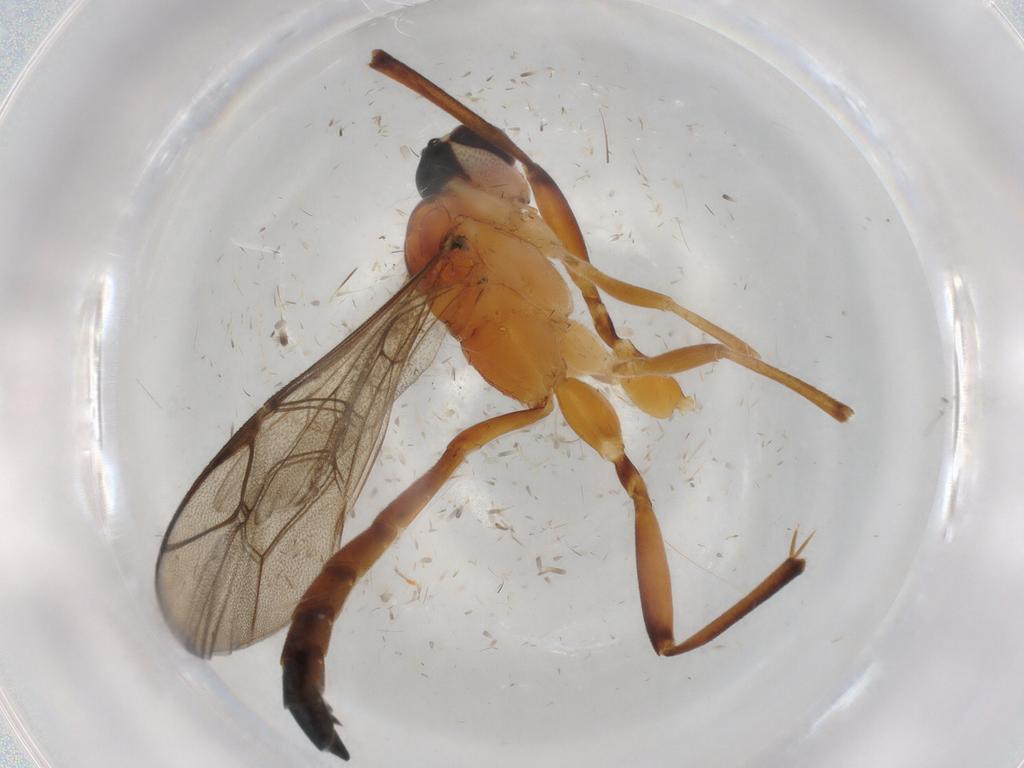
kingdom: Animalia
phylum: Arthropoda
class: Insecta
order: Hymenoptera
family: Ichneumonidae
